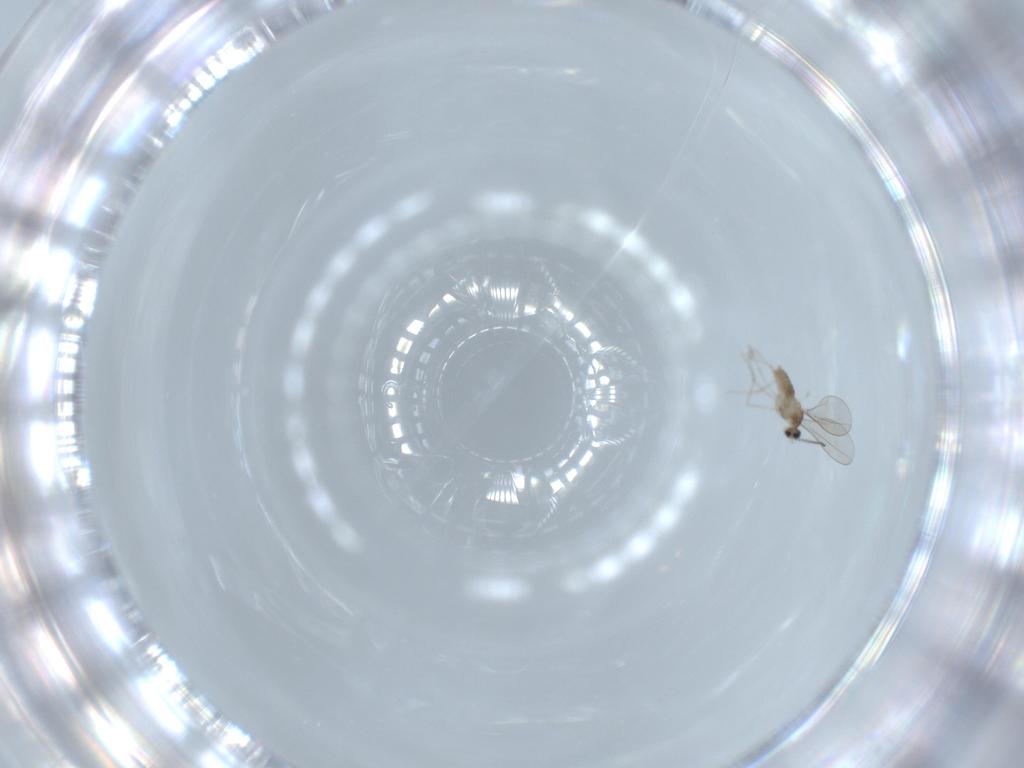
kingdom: Animalia
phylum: Arthropoda
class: Insecta
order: Diptera
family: Cecidomyiidae
